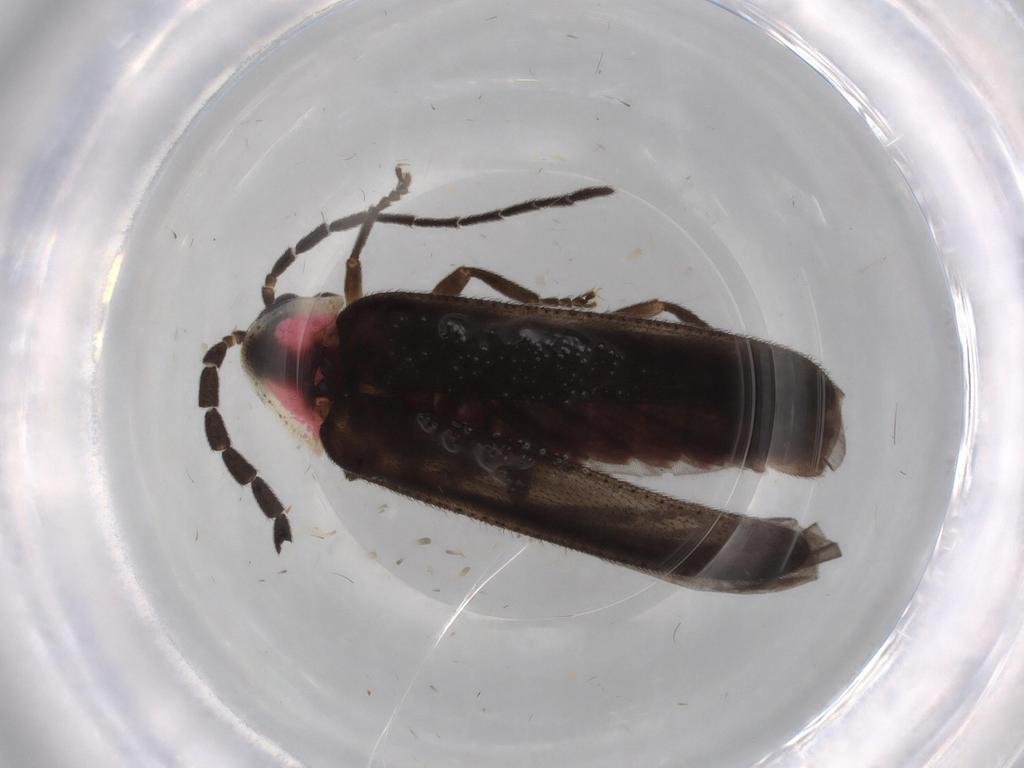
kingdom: Animalia
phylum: Arthropoda
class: Insecta
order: Coleoptera
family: Lampyridae
